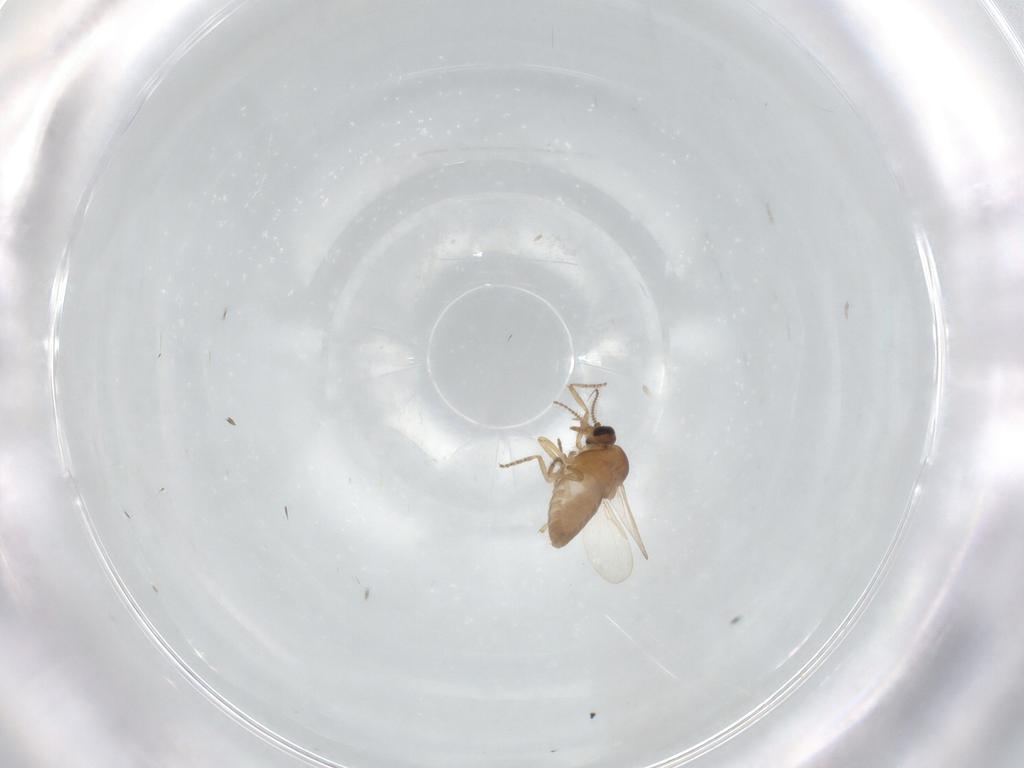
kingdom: Animalia
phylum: Arthropoda
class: Insecta
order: Diptera
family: Ceratopogonidae
